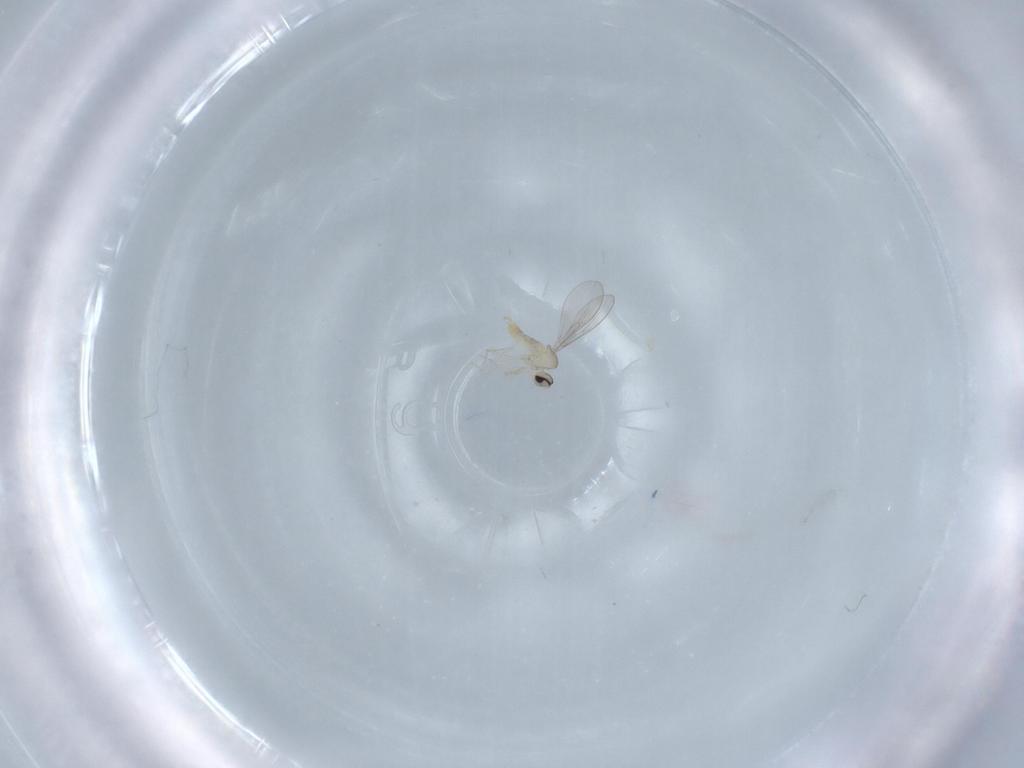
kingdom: Animalia
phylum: Arthropoda
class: Insecta
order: Diptera
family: Cecidomyiidae
